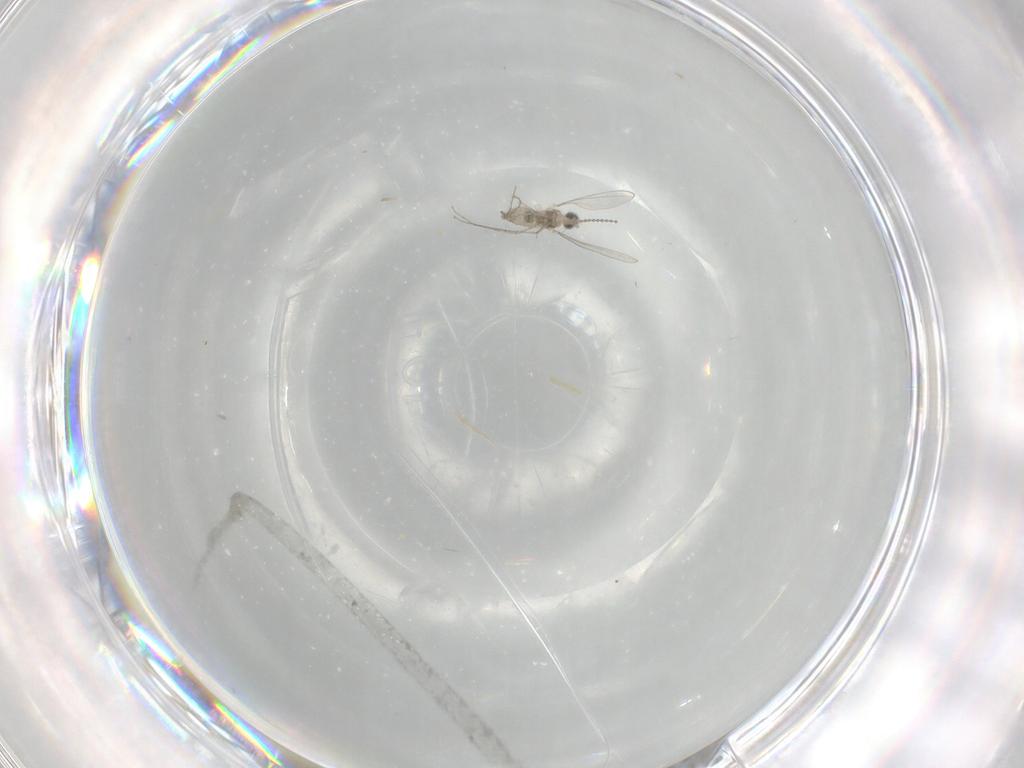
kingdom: Animalia
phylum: Arthropoda
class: Insecta
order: Diptera
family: Cecidomyiidae
